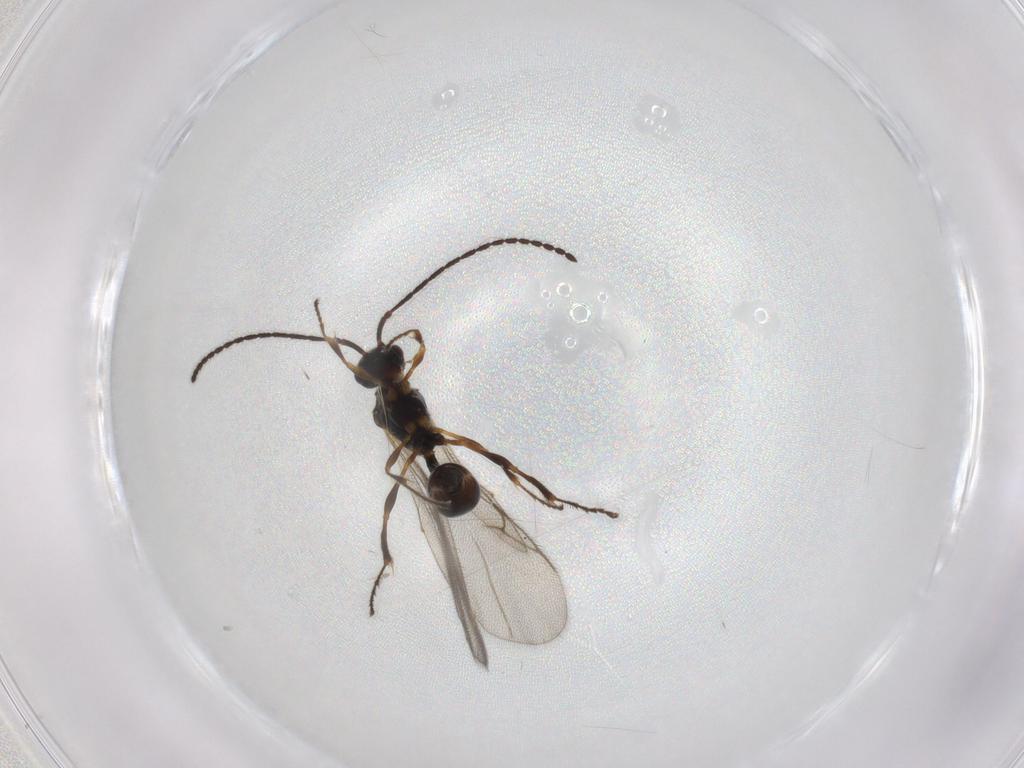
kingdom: Animalia
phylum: Arthropoda
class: Insecta
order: Hymenoptera
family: Diapriidae
